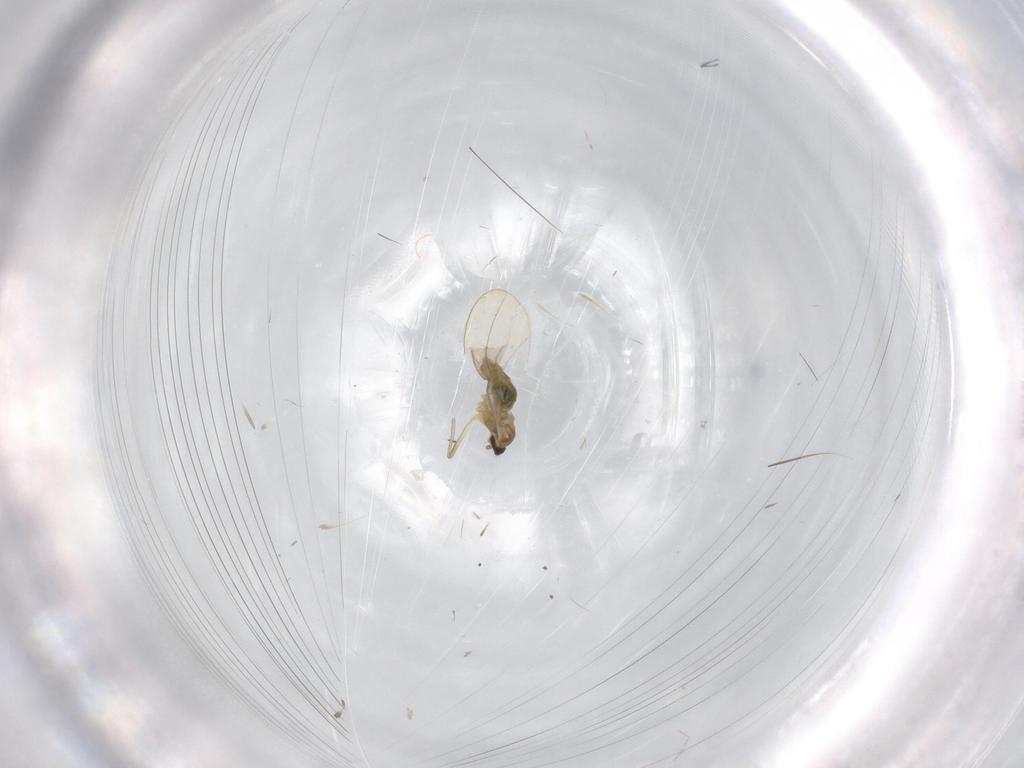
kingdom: Animalia
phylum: Arthropoda
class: Insecta
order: Diptera
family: Cecidomyiidae
